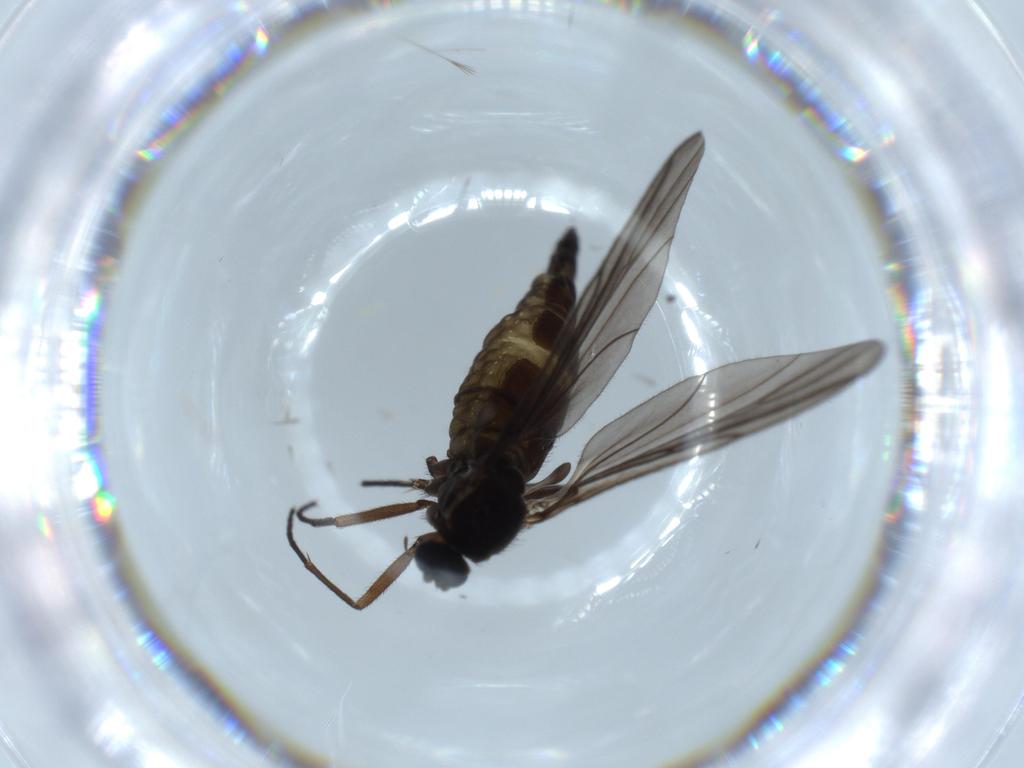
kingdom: Animalia
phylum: Arthropoda
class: Insecta
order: Diptera
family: Sciaridae
